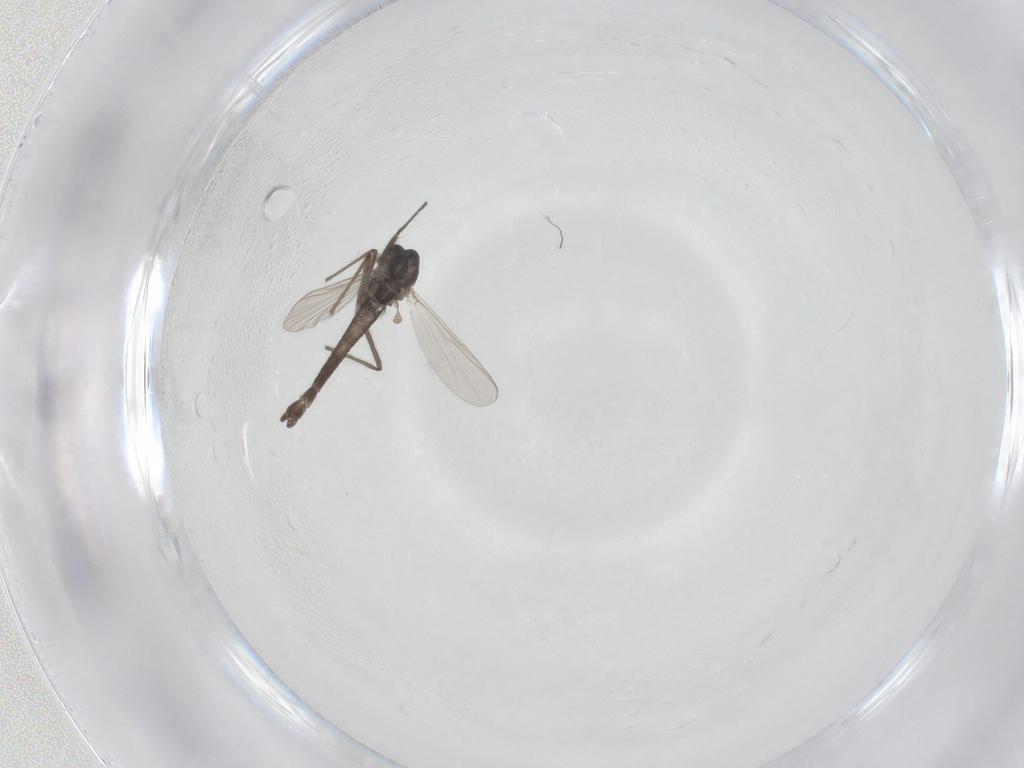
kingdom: Animalia
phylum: Arthropoda
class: Insecta
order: Diptera
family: Chironomidae
